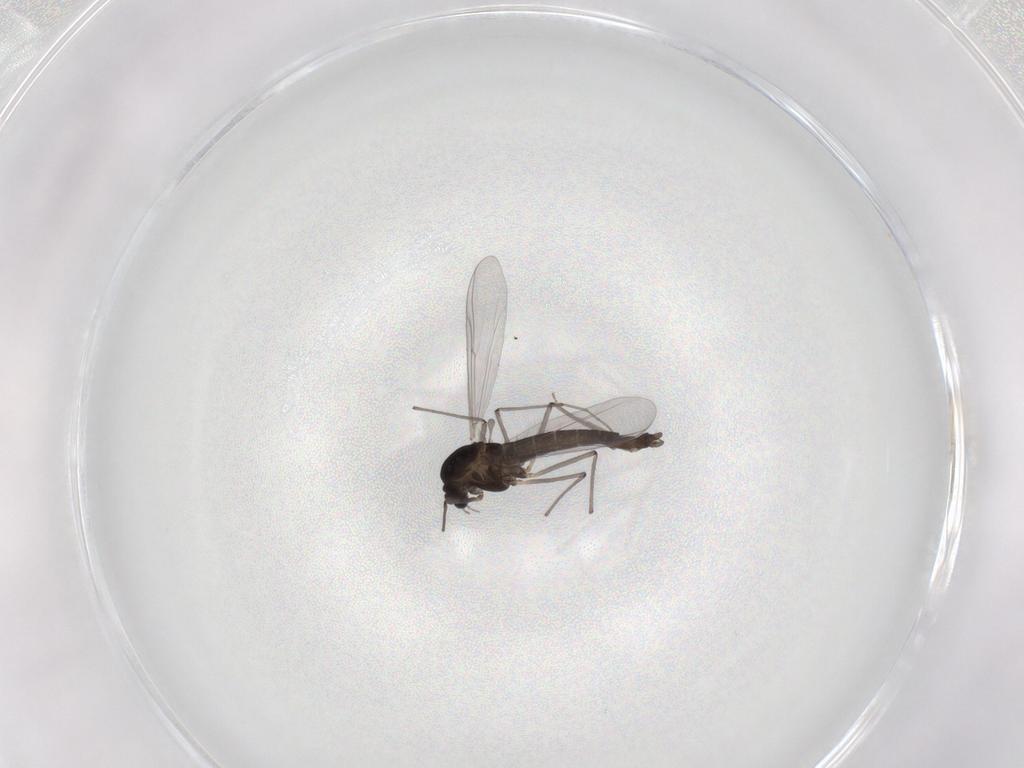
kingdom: Animalia
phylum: Arthropoda
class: Insecta
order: Diptera
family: Chironomidae
